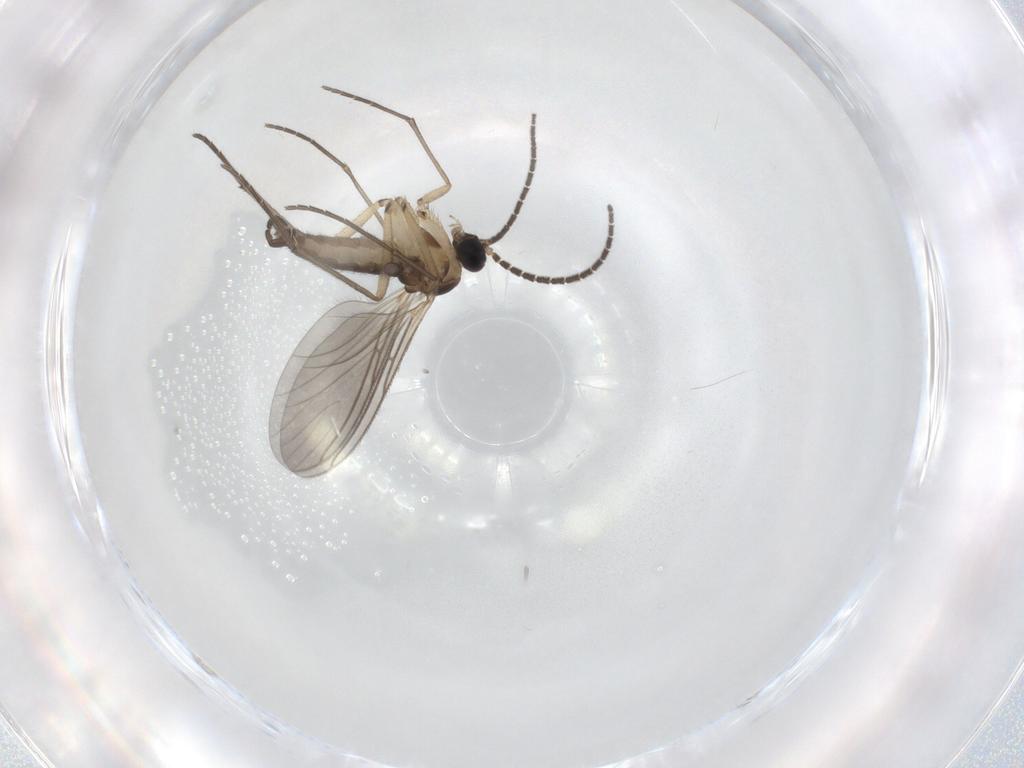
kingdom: Animalia
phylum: Arthropoda
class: Insecta
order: Diptera
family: Sciaridae
